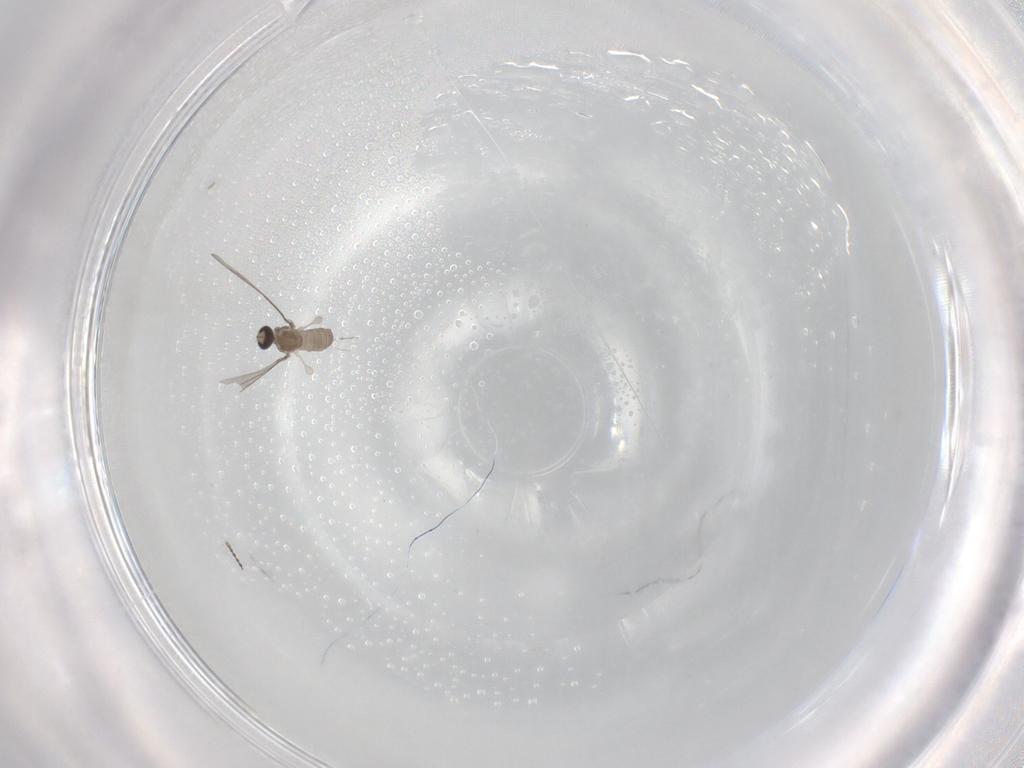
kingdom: Animalia
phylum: Arthropoda
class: Insecta
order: Diptera
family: Cecidomyiidae
